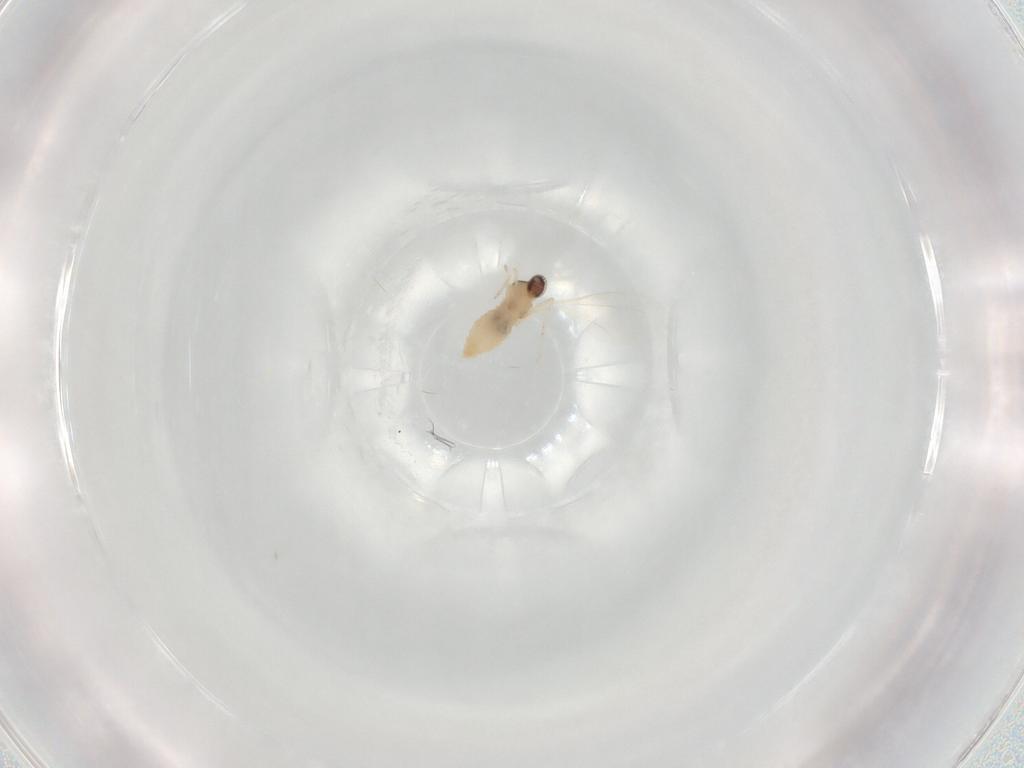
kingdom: Animalia
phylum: Arthropoda
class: Insecta
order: Diptera
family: Cecidomyiidae
